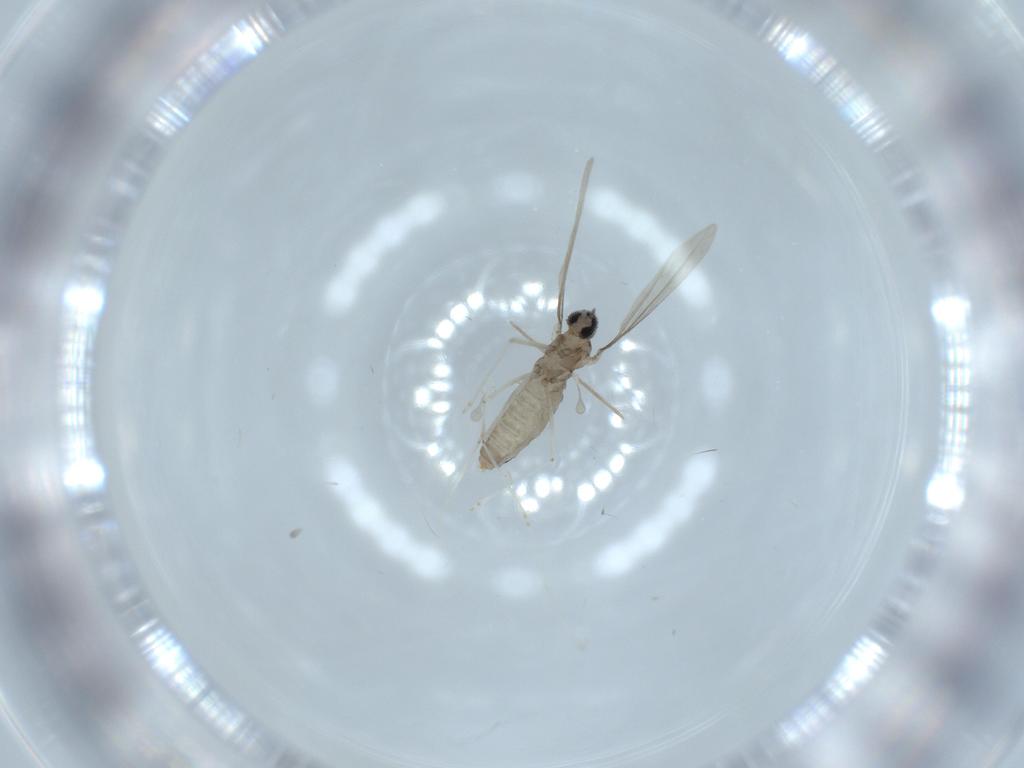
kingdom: Animalia
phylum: Arthropoda
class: Insecta
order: Diptera
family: Cecidomyiidae
